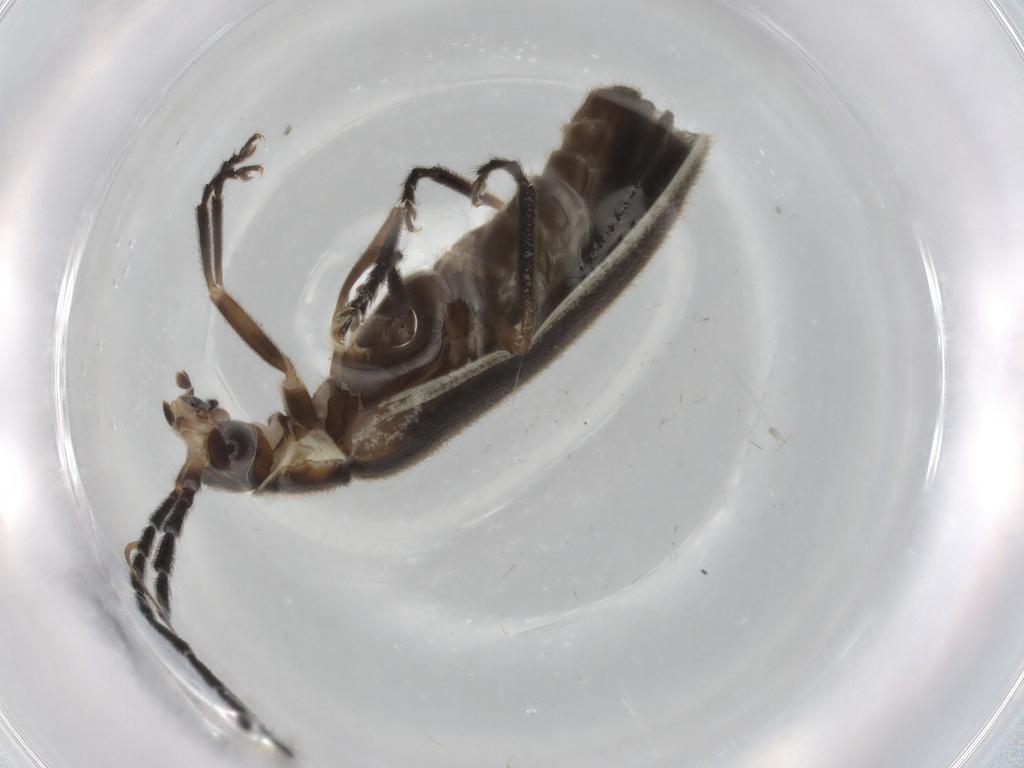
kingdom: Animalia
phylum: Arthropoda
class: Insecta
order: Coleoptera
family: Cantharidae
